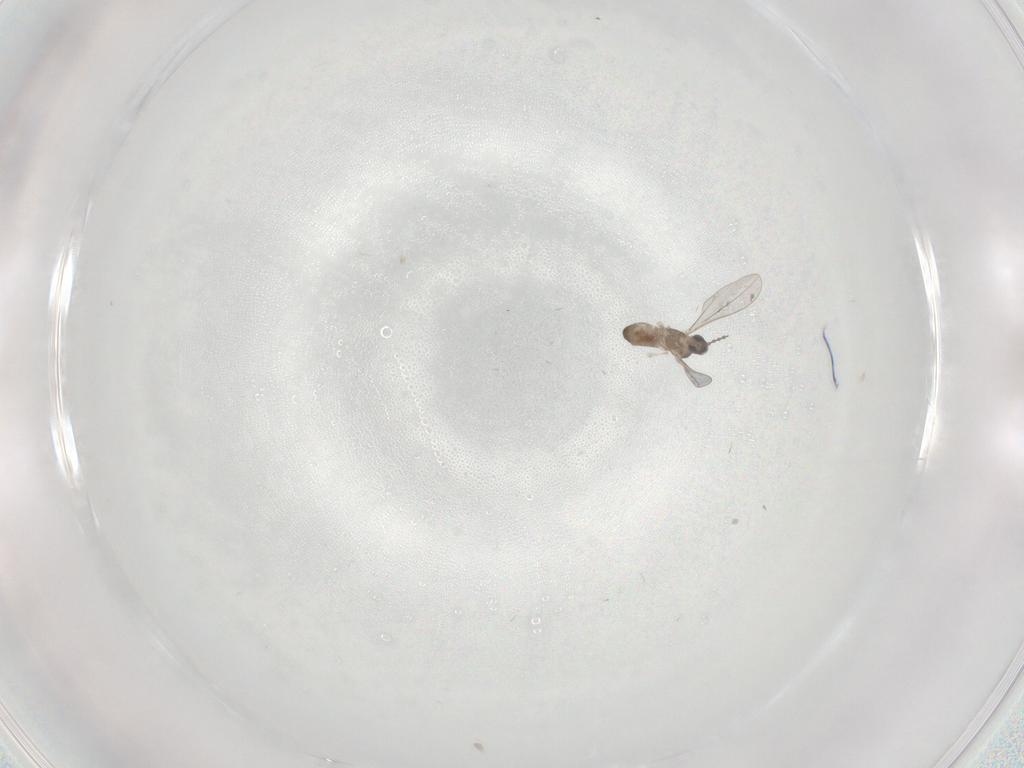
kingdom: Animalia
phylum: Arthropoda
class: Insecta
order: Diptera
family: Cecidomyiidae
